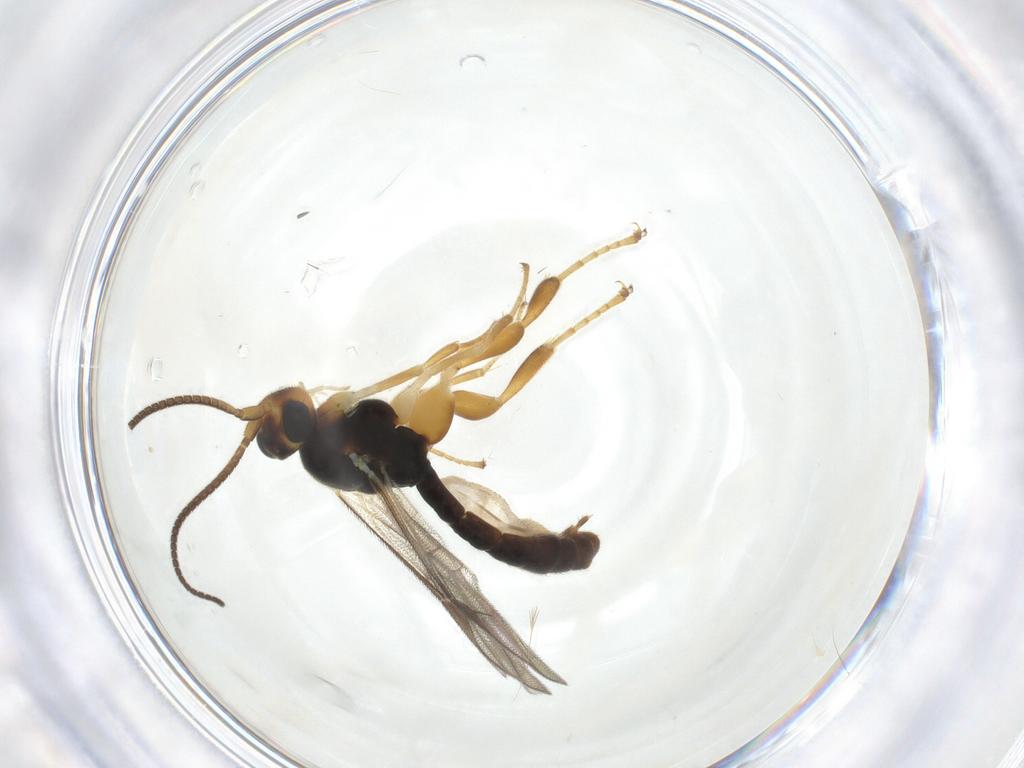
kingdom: Animalia
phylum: Arthropoda
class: Insecta
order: Hymenoptera
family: Ichneumonidae
